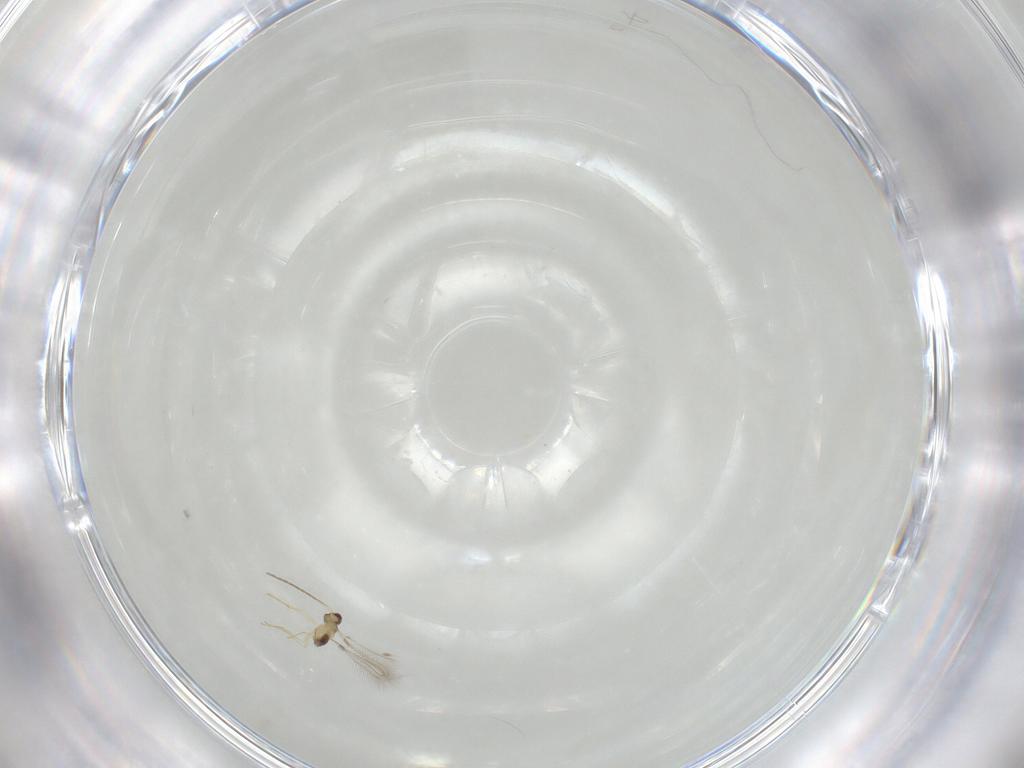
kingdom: Animalia
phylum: Arthropoda
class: Insecta
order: Hymenoptera
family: Mymaridae
